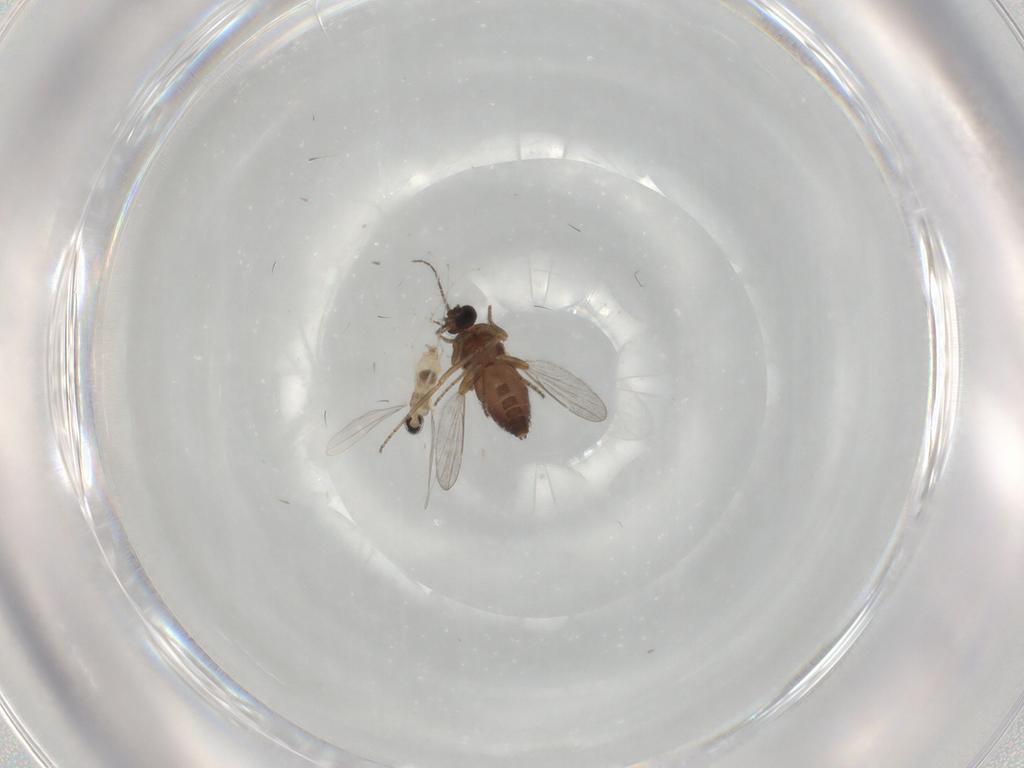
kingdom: Animalia
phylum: Arthropoda
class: Insecta
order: Diptera
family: Ceratopogonidae
